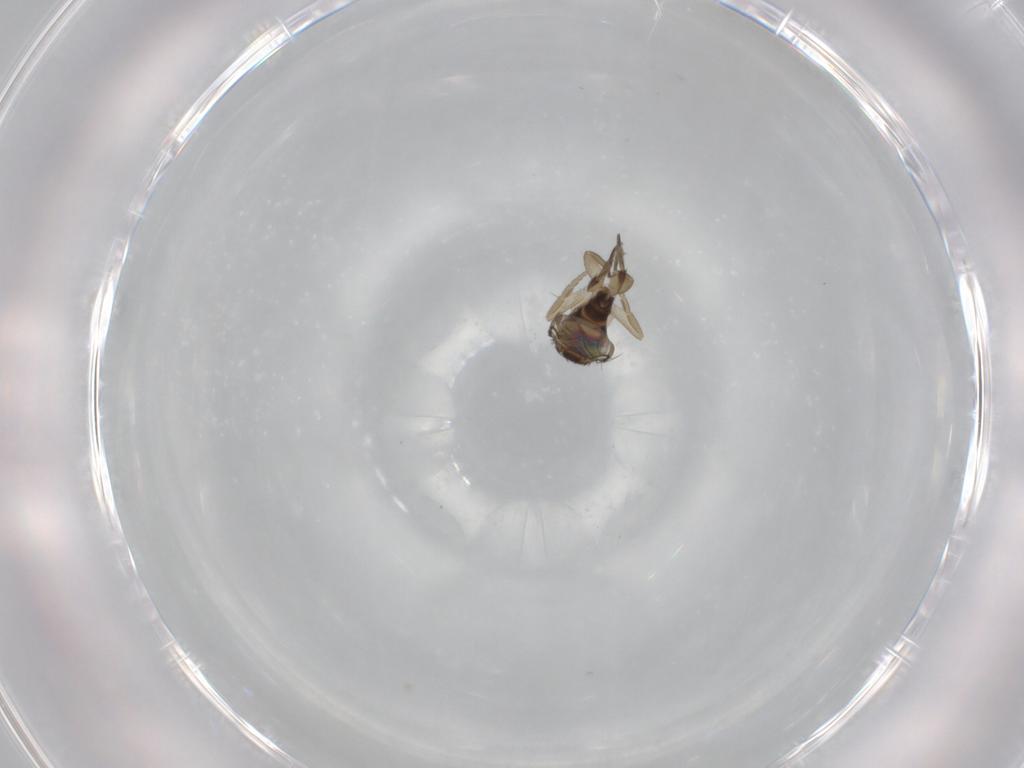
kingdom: Animalia
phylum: Arthropoda
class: Insecta
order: Diptera
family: Phoridae
